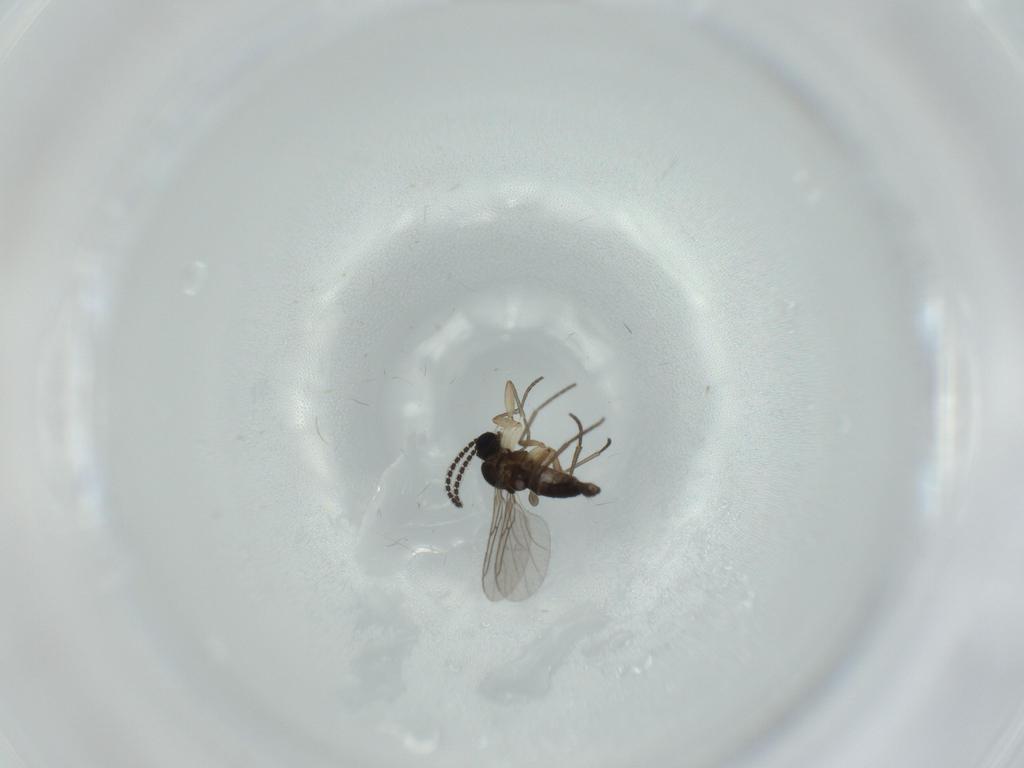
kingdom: Animalia
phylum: Arthropoda
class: Insecta
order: Diptera
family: Sciaridae
